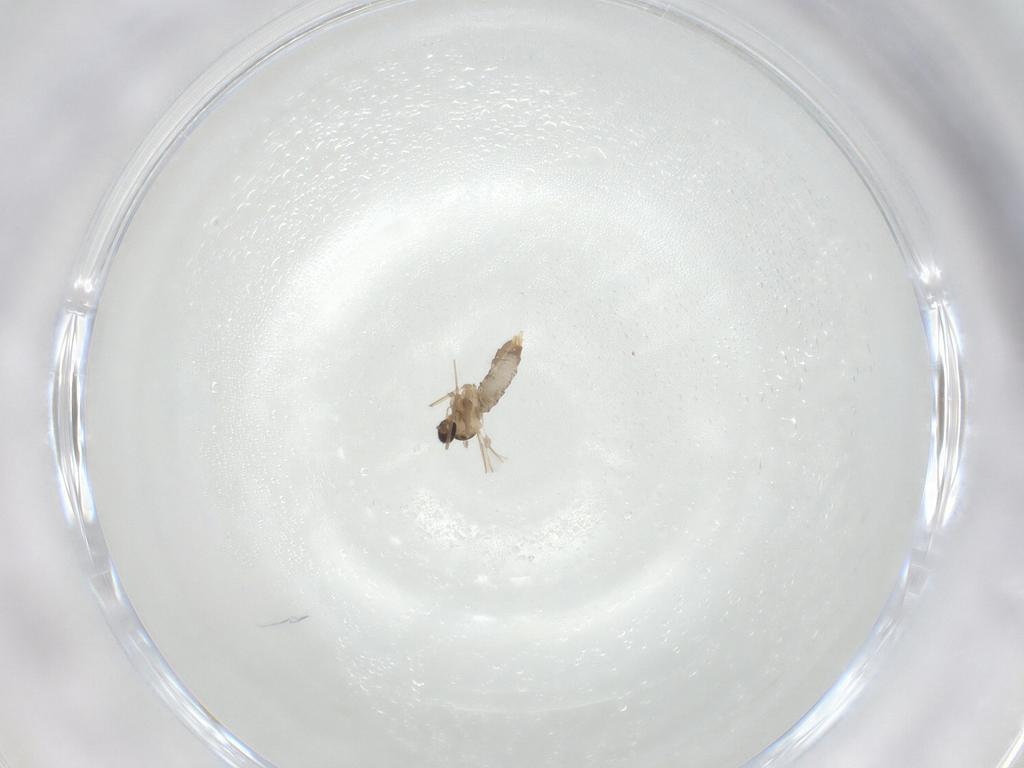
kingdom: Animalia
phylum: Arthropoda
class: Insecta
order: Diptera
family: Cecidomyiidae
